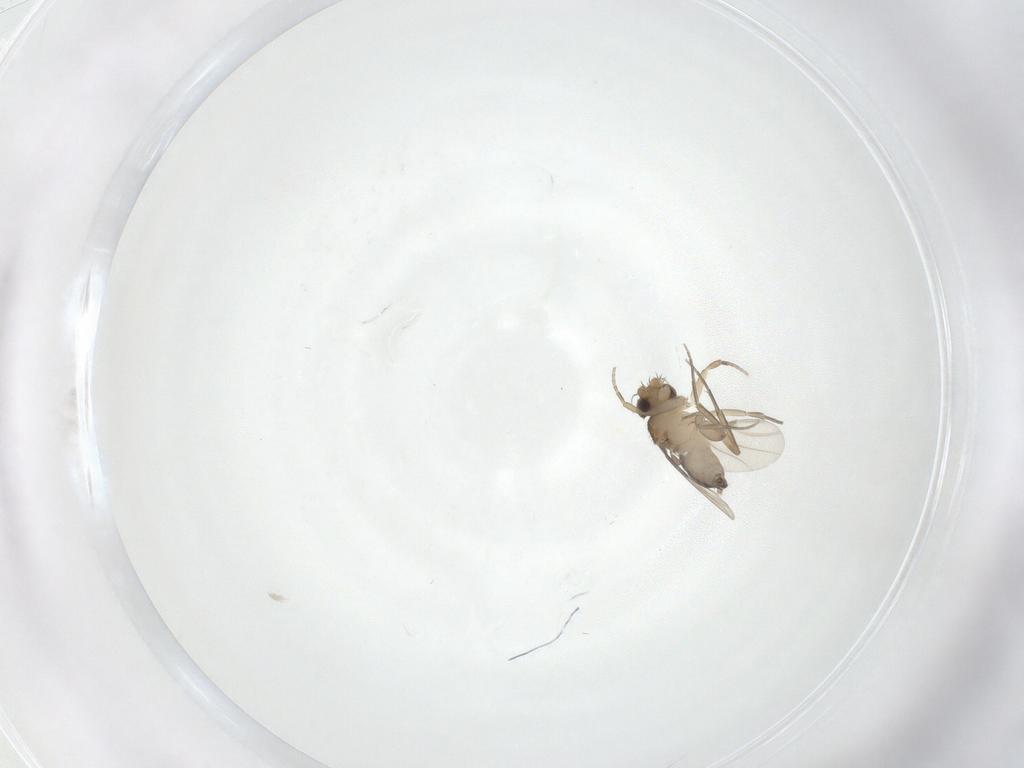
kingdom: Animalia
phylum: Arthropoda
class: Insecta
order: Diptera
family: Phoridae
